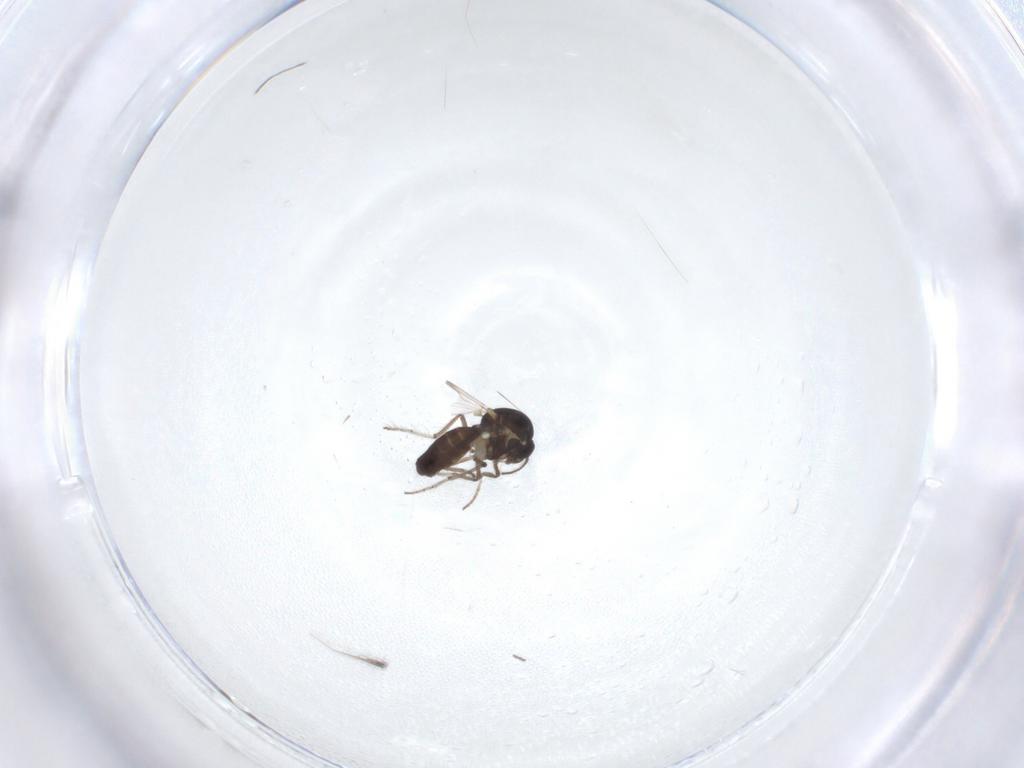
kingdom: Animalia
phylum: Arthropoda
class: Insecta
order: Diptera
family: Ceratopogonidae
